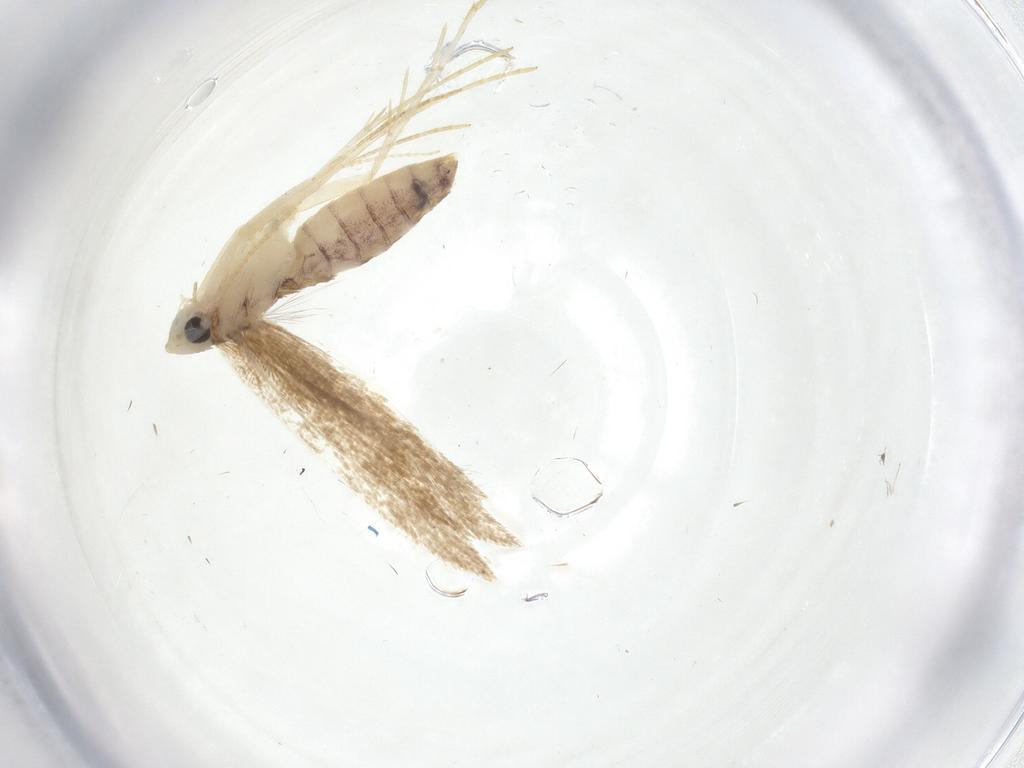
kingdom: Animalia
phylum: Arthropoda
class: Insecta
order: Lepidoptera
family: Lyonetiidae
